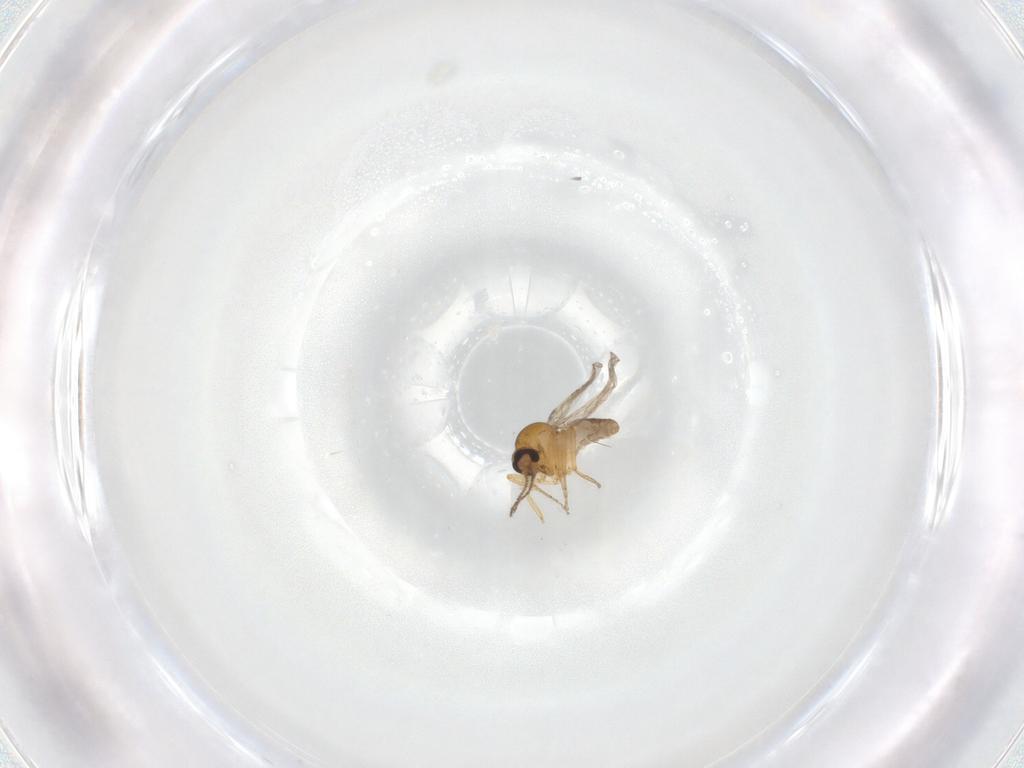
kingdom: Animalia
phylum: Arthropoda
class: Insecta
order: Diptera
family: Ceratopogonidae
